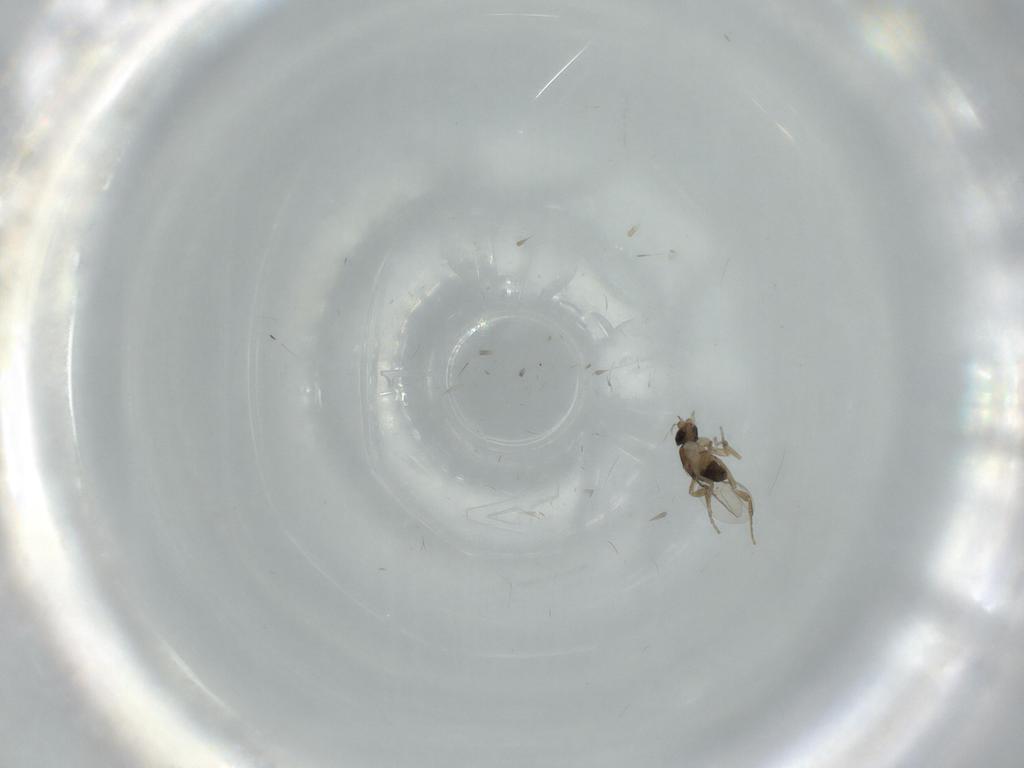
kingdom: Animalia
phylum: Arthropoda
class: Insecta
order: Diptera
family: Phoridae
